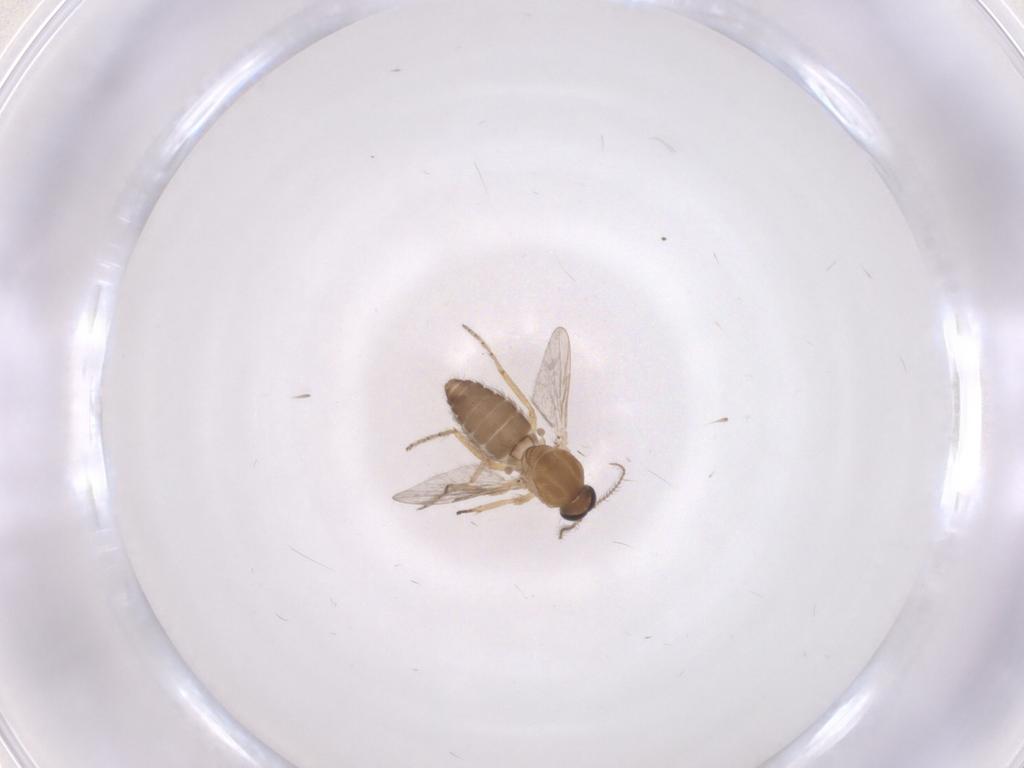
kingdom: Animalia
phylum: Arthropoda
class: Insecta
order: Diptera
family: Ceratopogonidae
